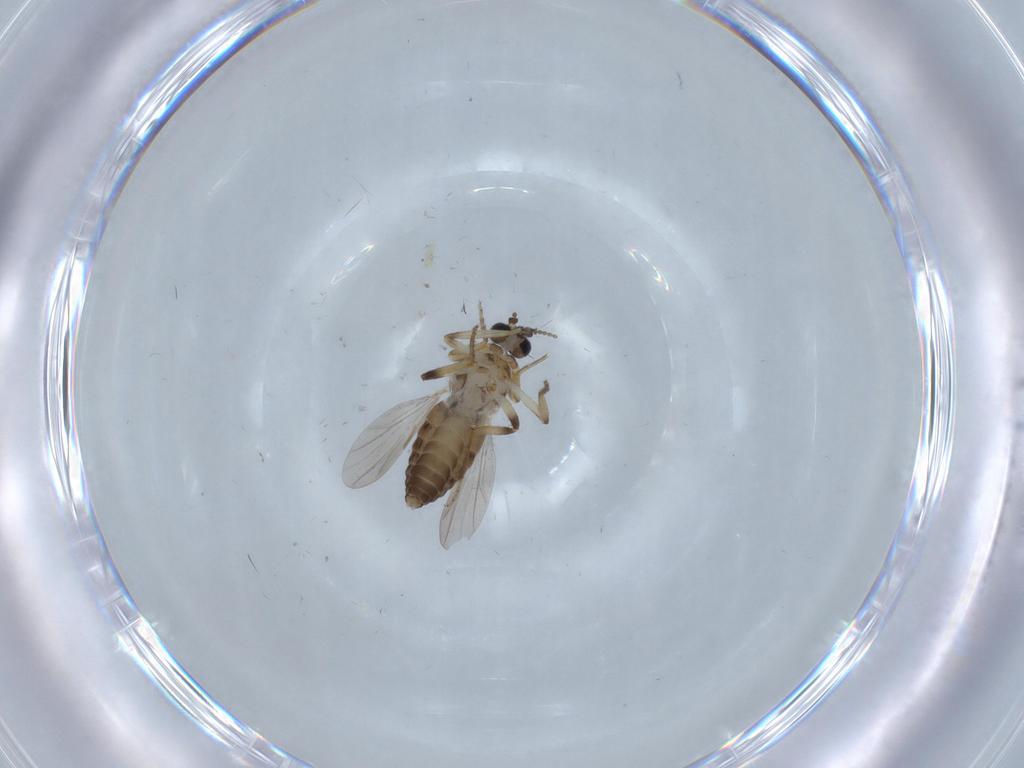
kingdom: Animalia
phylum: Arthropoda
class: Insecta
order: Diptera
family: Ceratopogonidae
